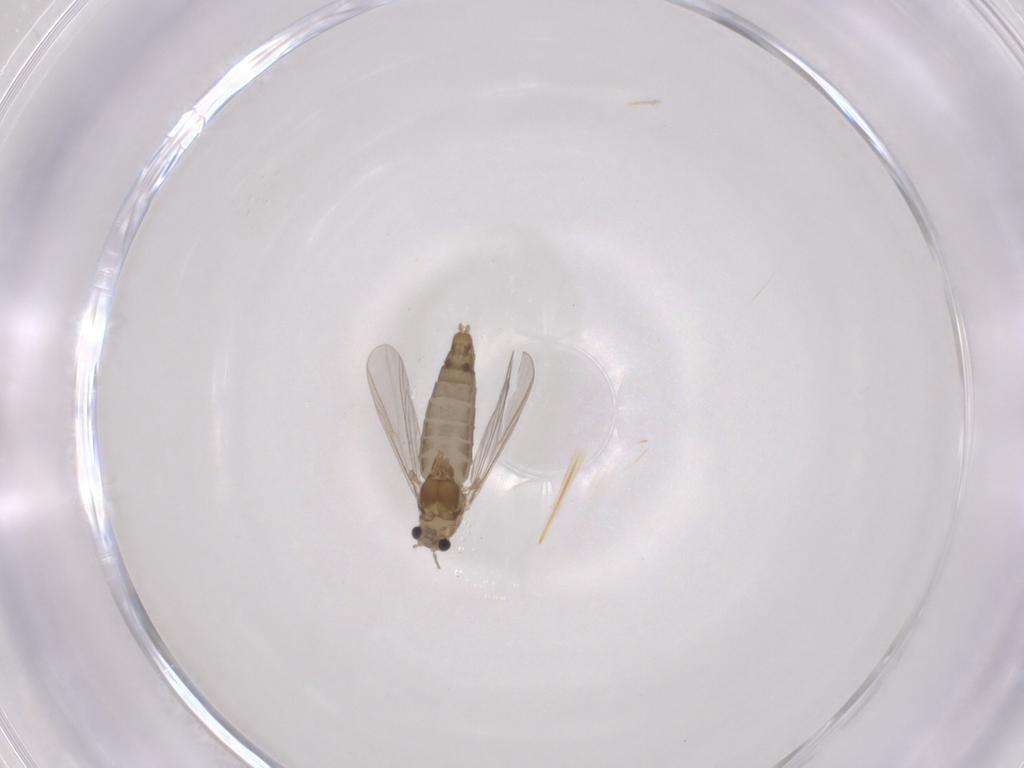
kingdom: Animalia
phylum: Arthropoda
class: Insecta
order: Diptera
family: Chironomidae
